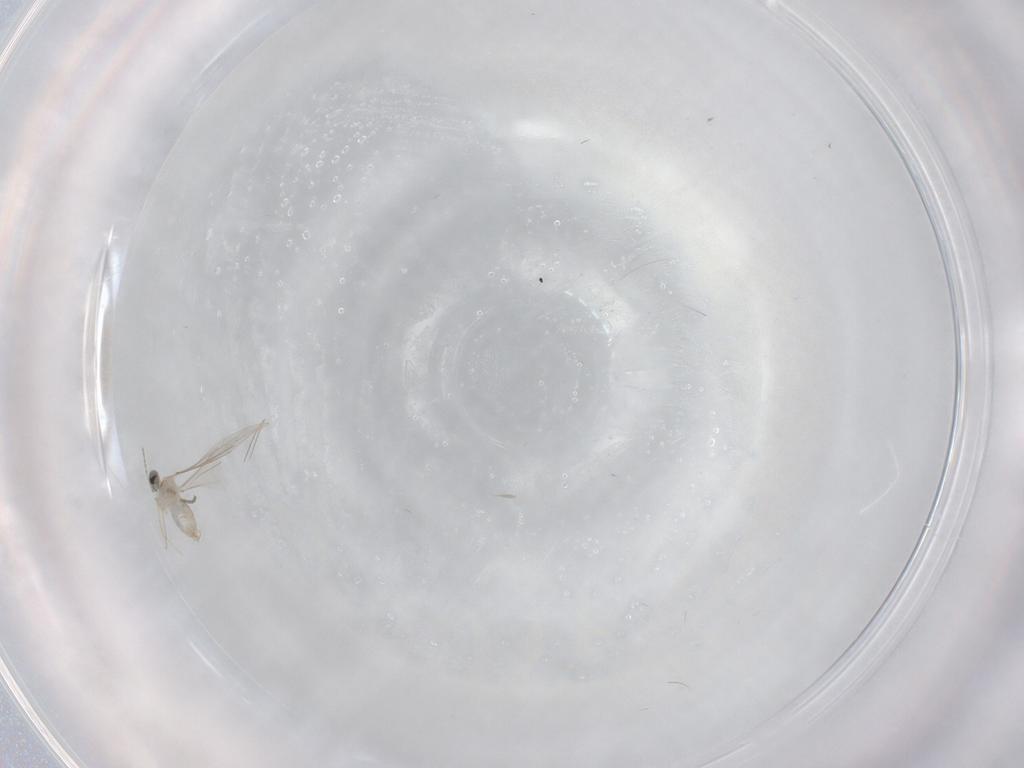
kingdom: Animalia
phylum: Arthropoda
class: Insecta
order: Diptera
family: Cecidomyiidae
